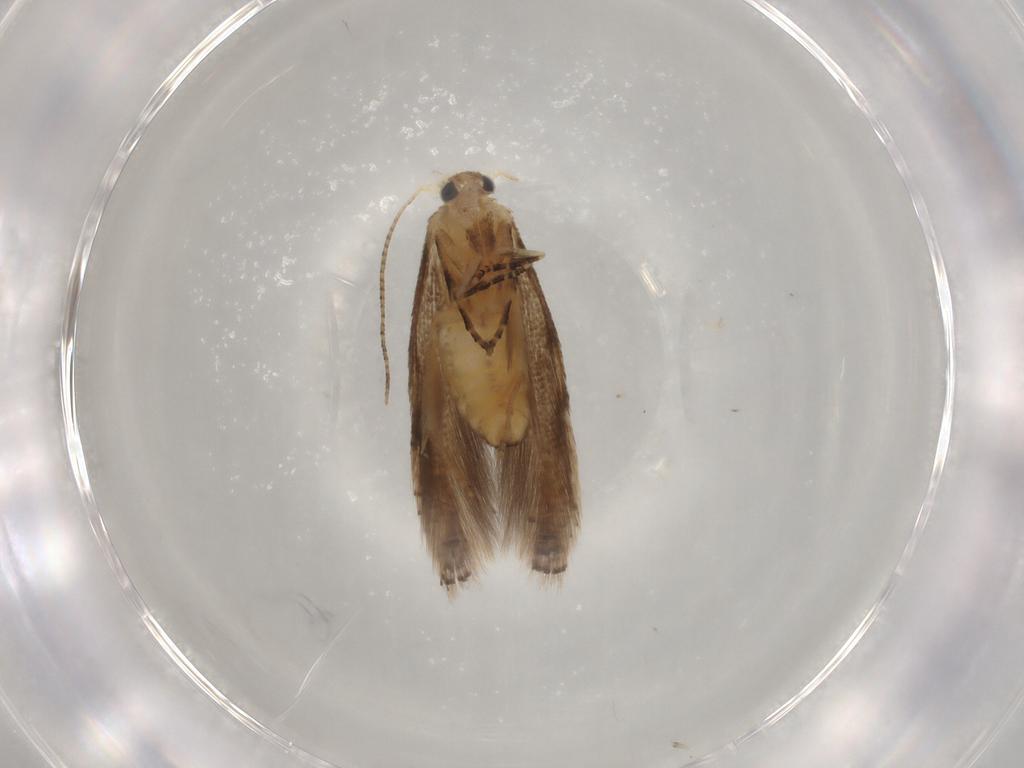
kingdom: Animalia
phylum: Arthropoda
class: Insecta
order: Lepidoptera
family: Bucculatricidae
